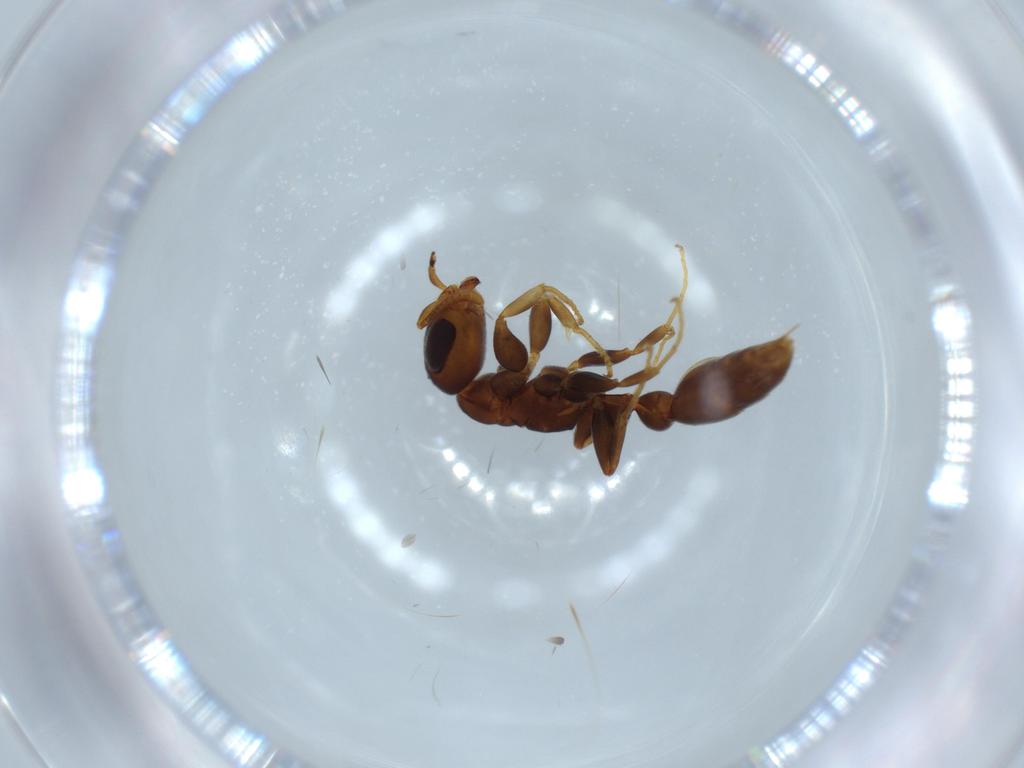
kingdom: Animalia
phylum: Arthropoda
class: Insecta
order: Hymenoptera
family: Formicidae
